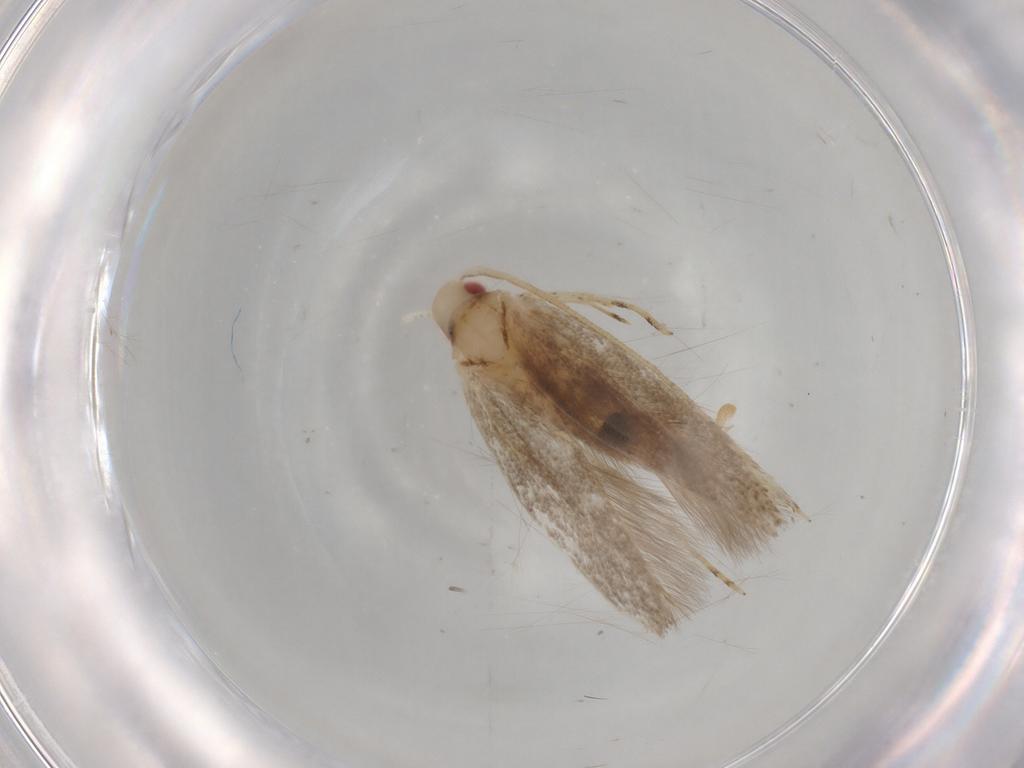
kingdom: Animalia
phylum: Arthropoda
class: Insecta
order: Lepidoptera
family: Erebidae
